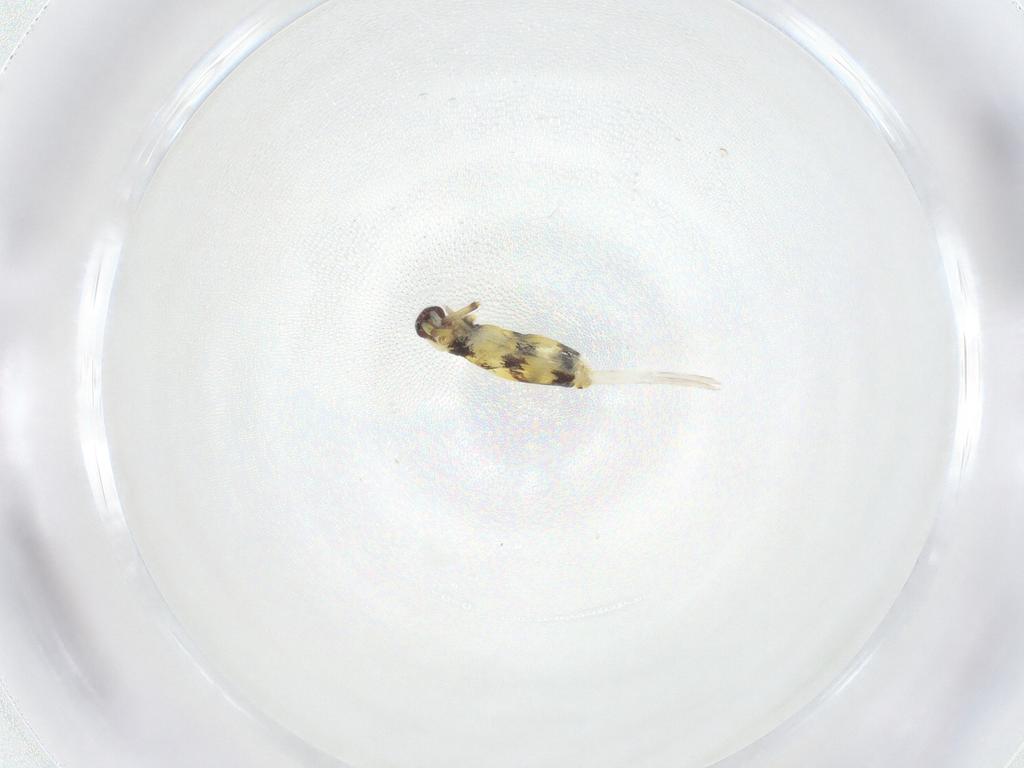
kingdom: Animalia
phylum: Arthropoda
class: Collembola
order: Entomobryomorpha
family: Entomobryidae
